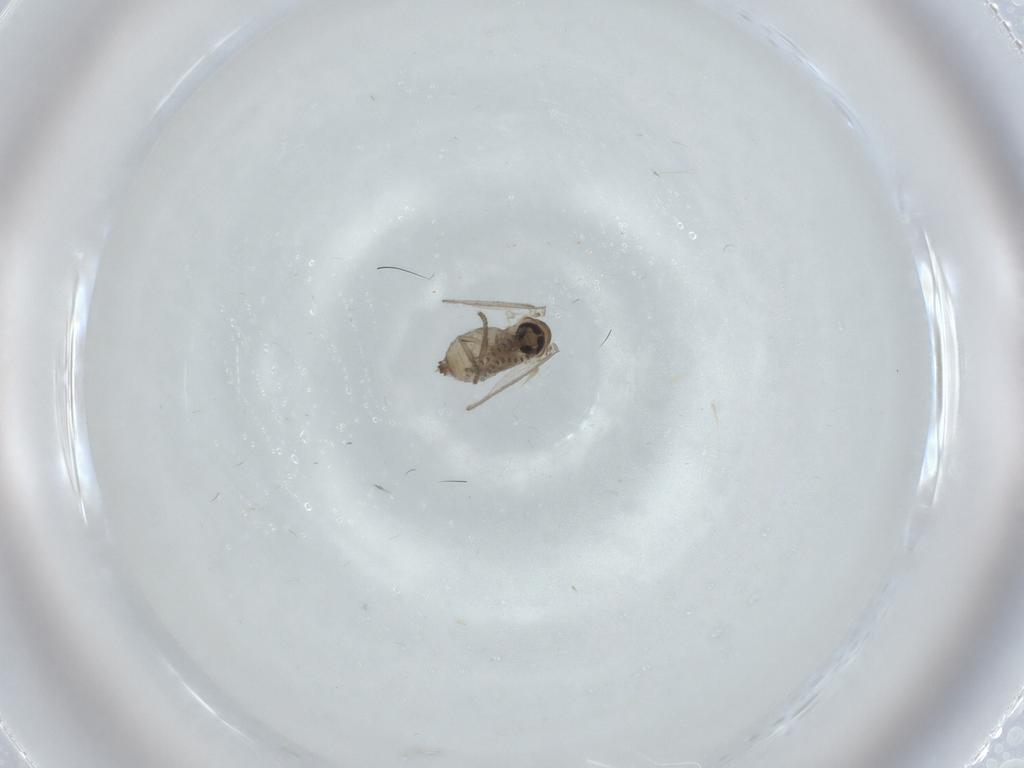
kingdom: Animalia
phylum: Arthropoda
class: Insecta
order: Diptera
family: Psychodidae
